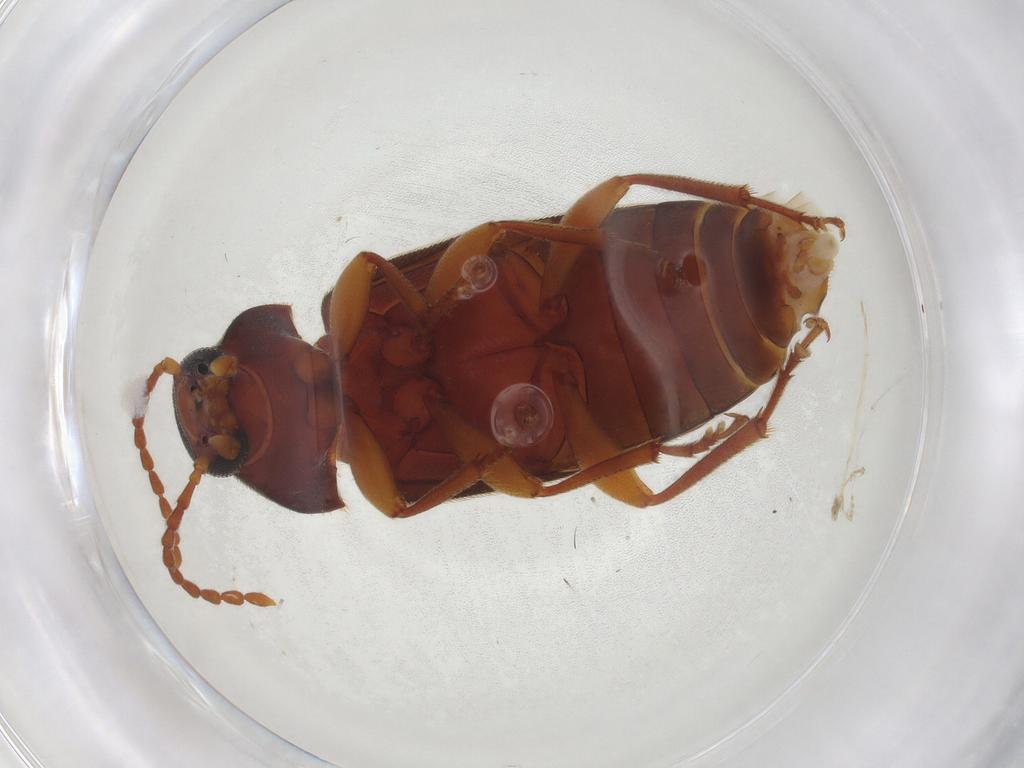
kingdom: Animalia
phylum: Arthropoda
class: Insecta
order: Coleoptera
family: Tenebrionidae
